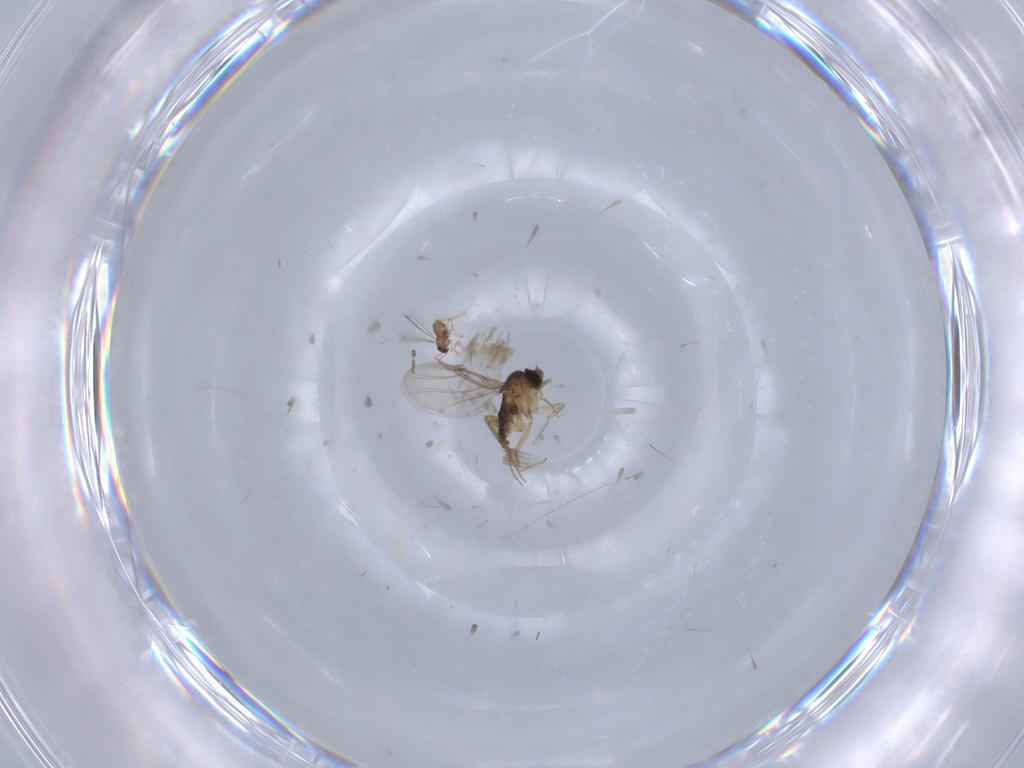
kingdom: Animalia
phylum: Arthropoda
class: Insecta
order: Diptera
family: Cecidomyiidae
